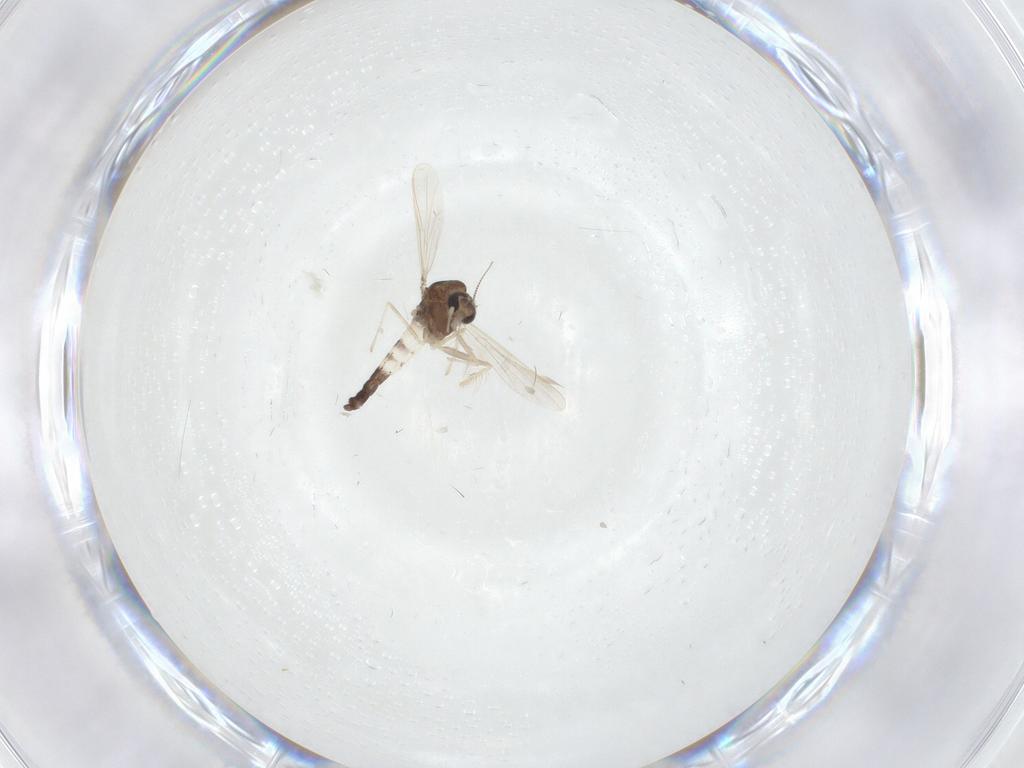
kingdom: Animalia
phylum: Arthropoda
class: Insecta
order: Diptera
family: Chironomidae
